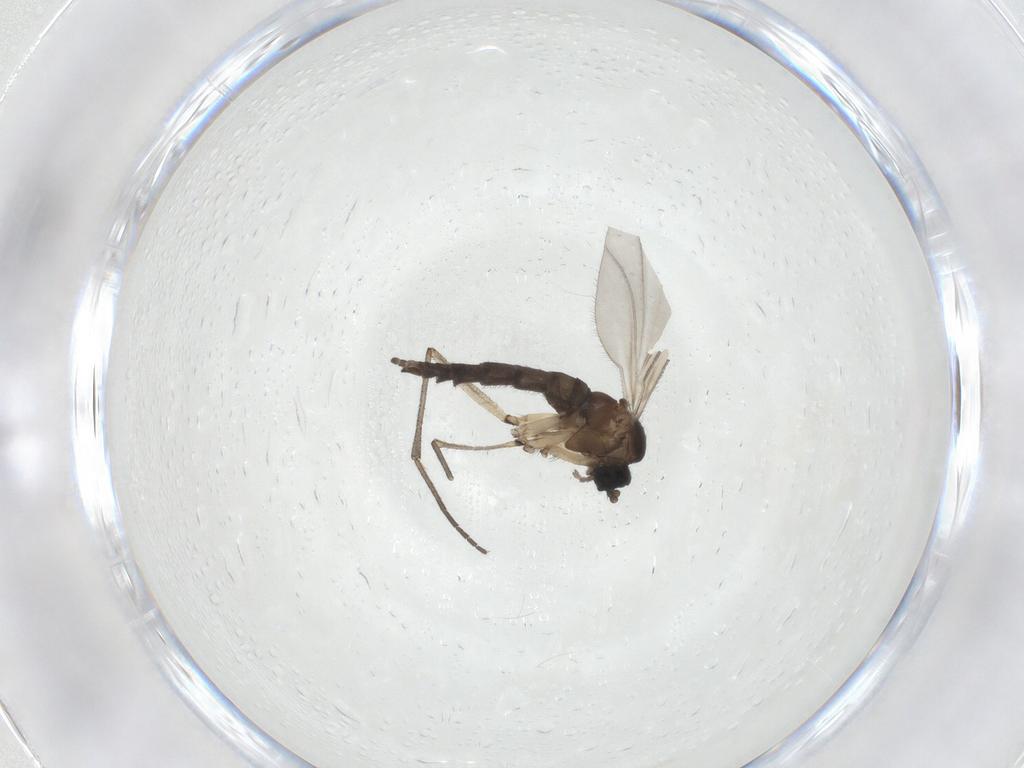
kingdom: Animalia
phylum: Arthropoda
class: Insecta
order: Diptera
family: Sciaridae
